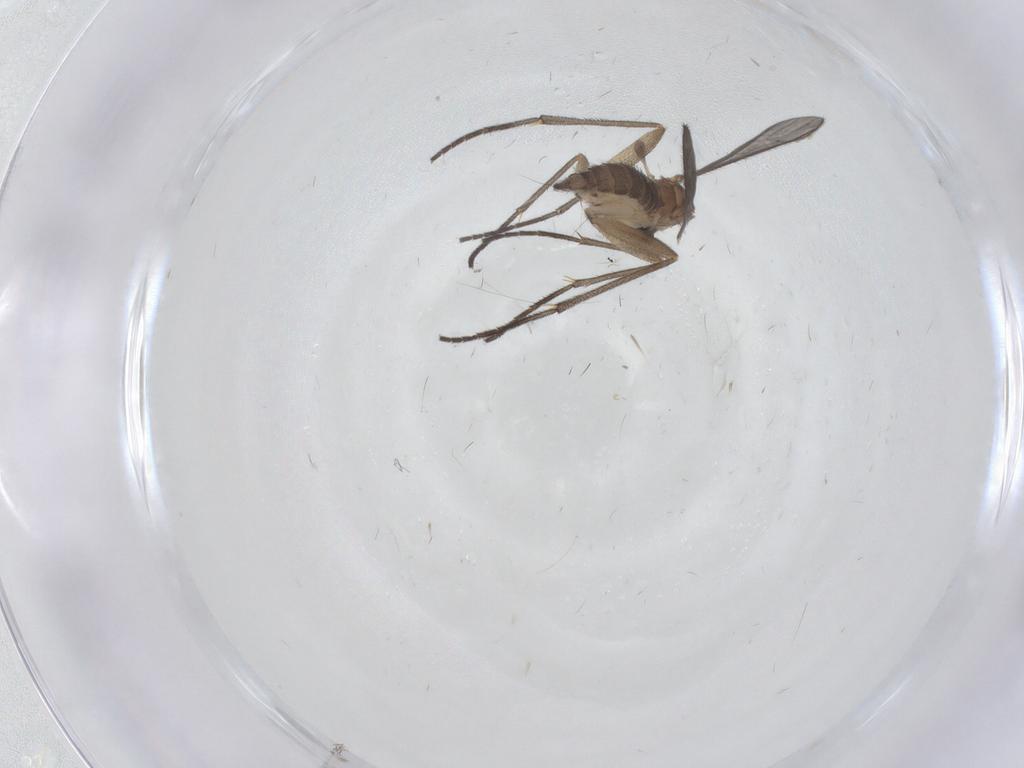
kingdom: Animalia
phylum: Arthropoda
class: Insecta
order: Diptera
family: Sciaridae
